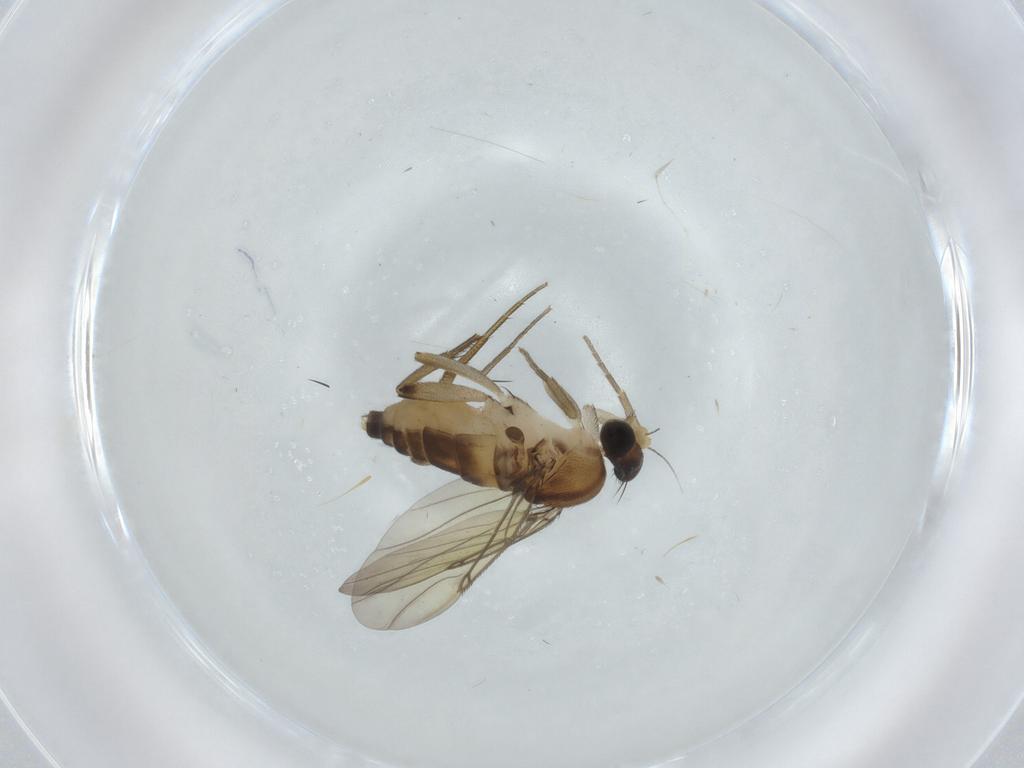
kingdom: Animalia
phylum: Arthropoda
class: Insecta
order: Diptera
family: Phoridae
